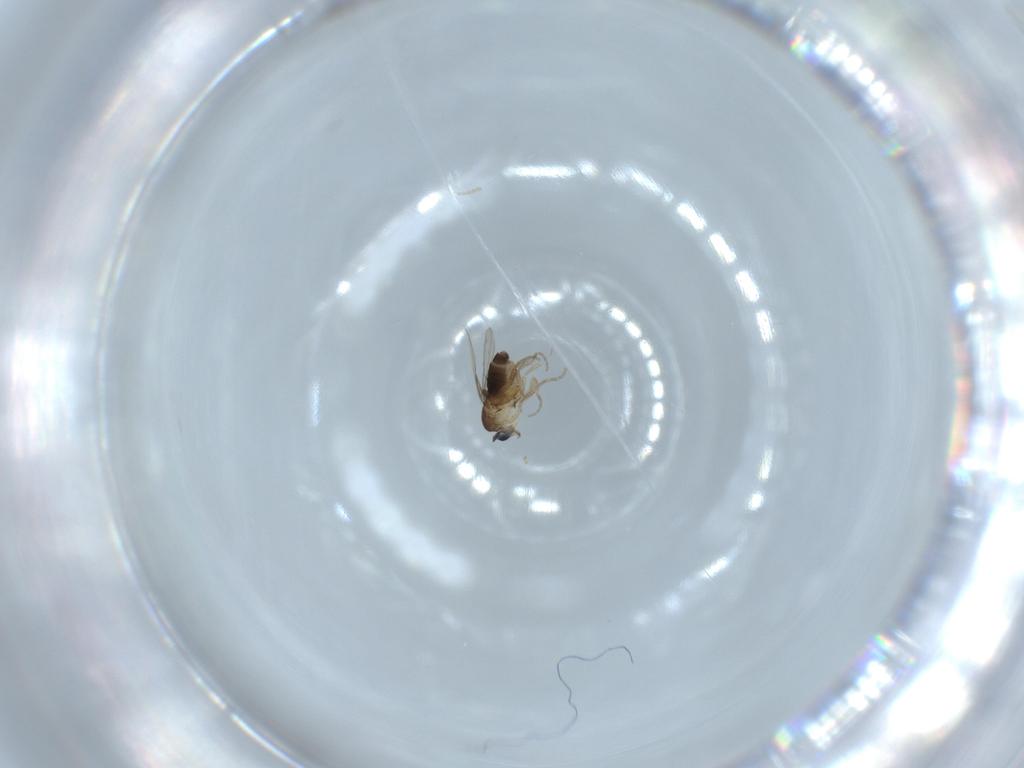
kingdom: Animalia
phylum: Arthropoda
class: Insecta
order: Diptera
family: Phoridae
